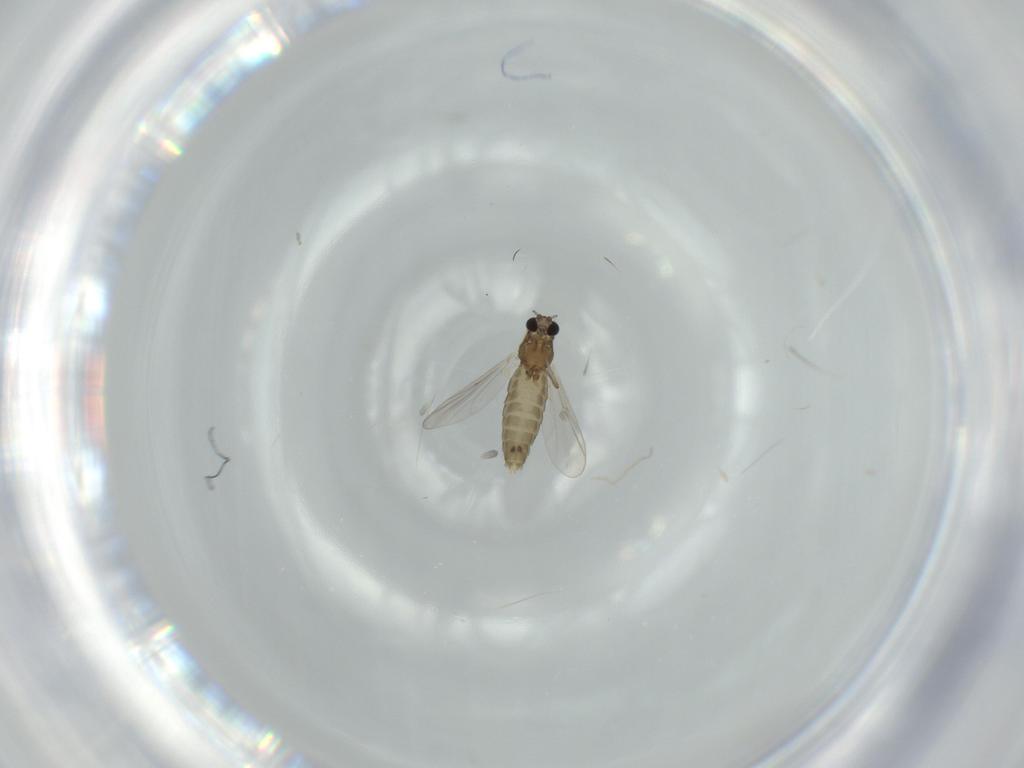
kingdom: Animalia
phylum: Arthropoda
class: Insecta
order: Diptera
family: Chironomidae
